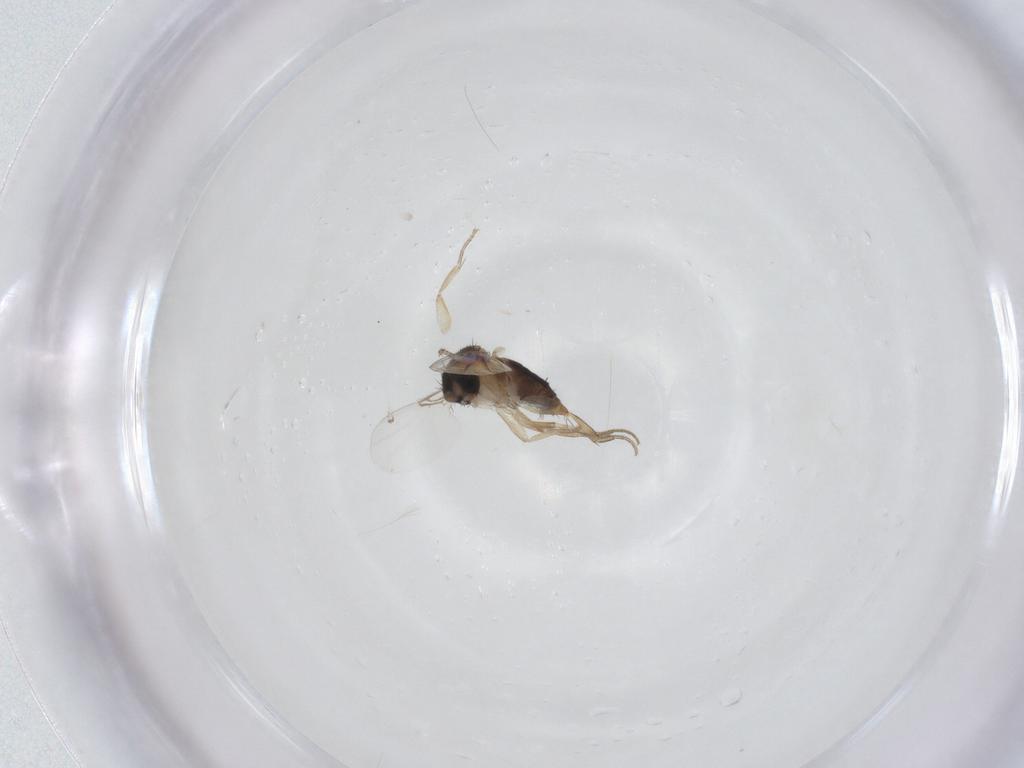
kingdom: Animalia
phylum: Arthropoda
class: Insecta
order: Diptera
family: Phoridae
